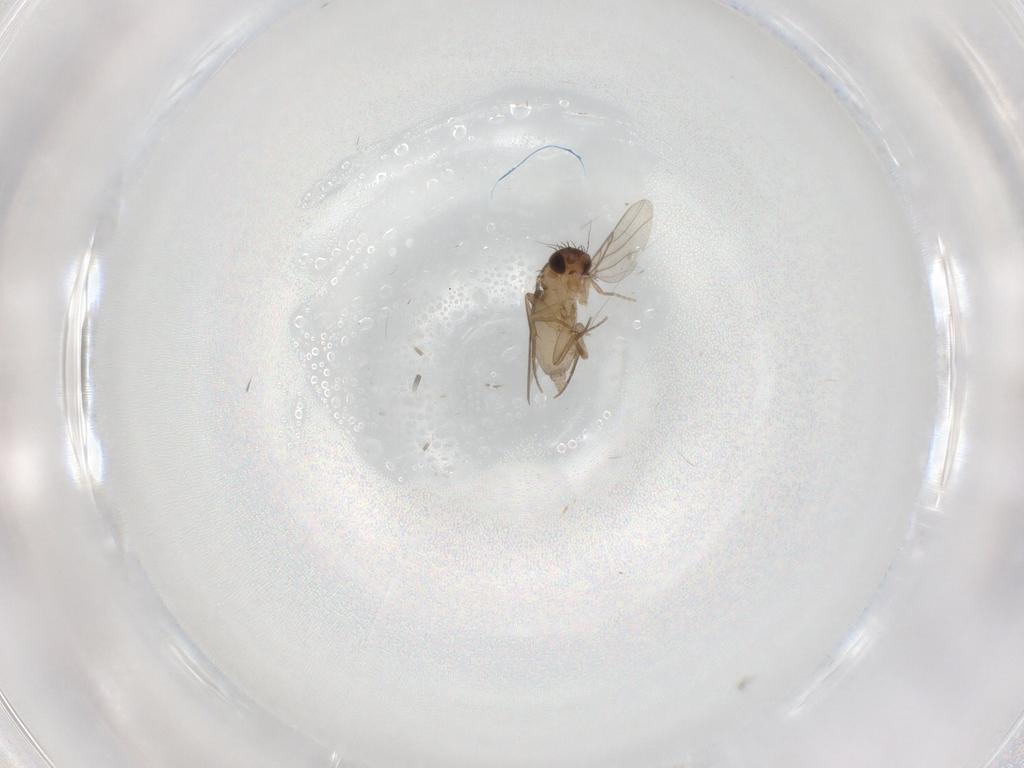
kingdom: Animalia
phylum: Arthropoda
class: Insecta
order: Diptera
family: Phoridae
